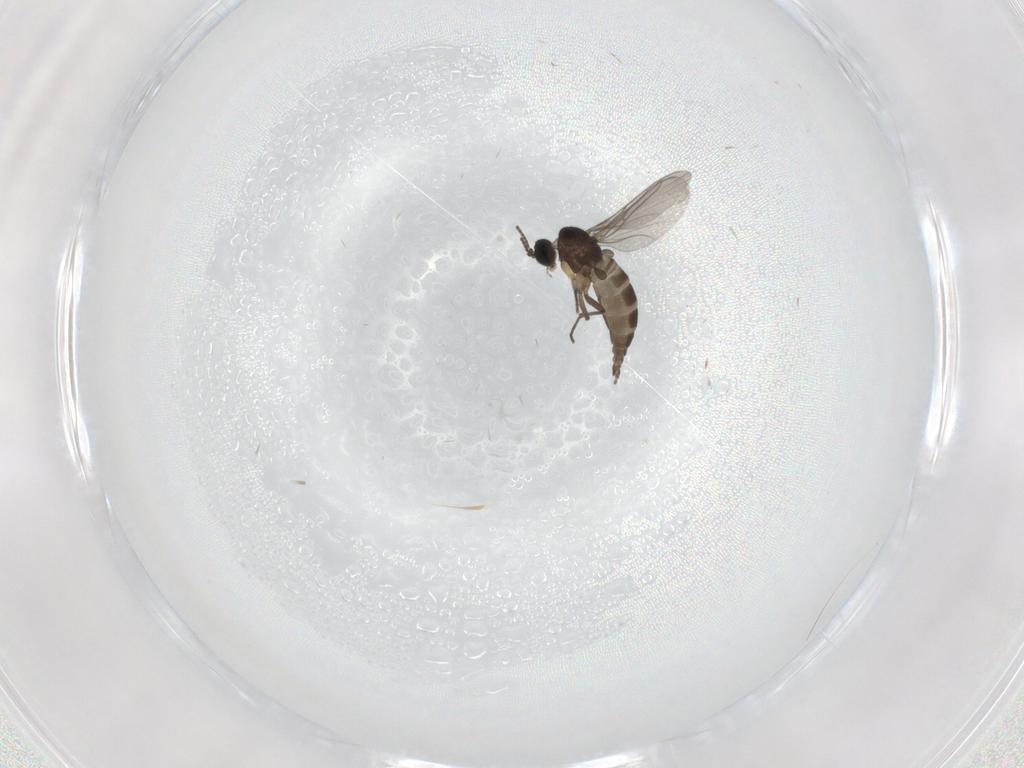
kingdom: Animalia
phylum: Arthropoda
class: Insecta
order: Diptera
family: Sciaridae
